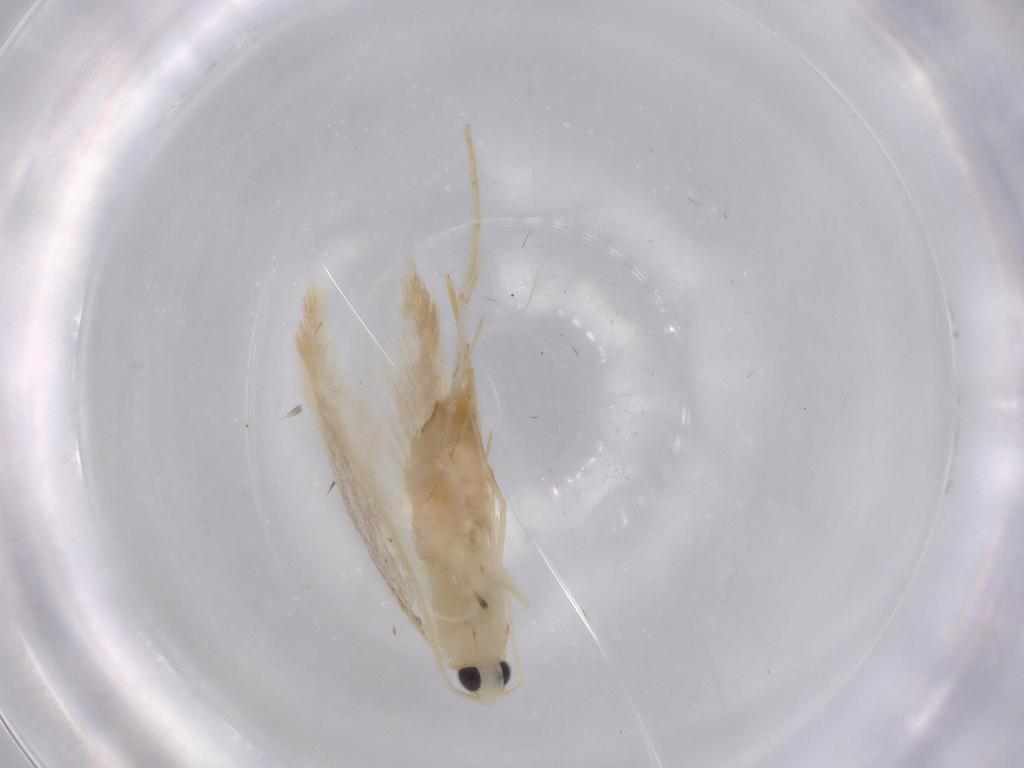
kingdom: Animalia
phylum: Arthropoda
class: Insecta
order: Lepidoptera
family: Lyonetiidae
